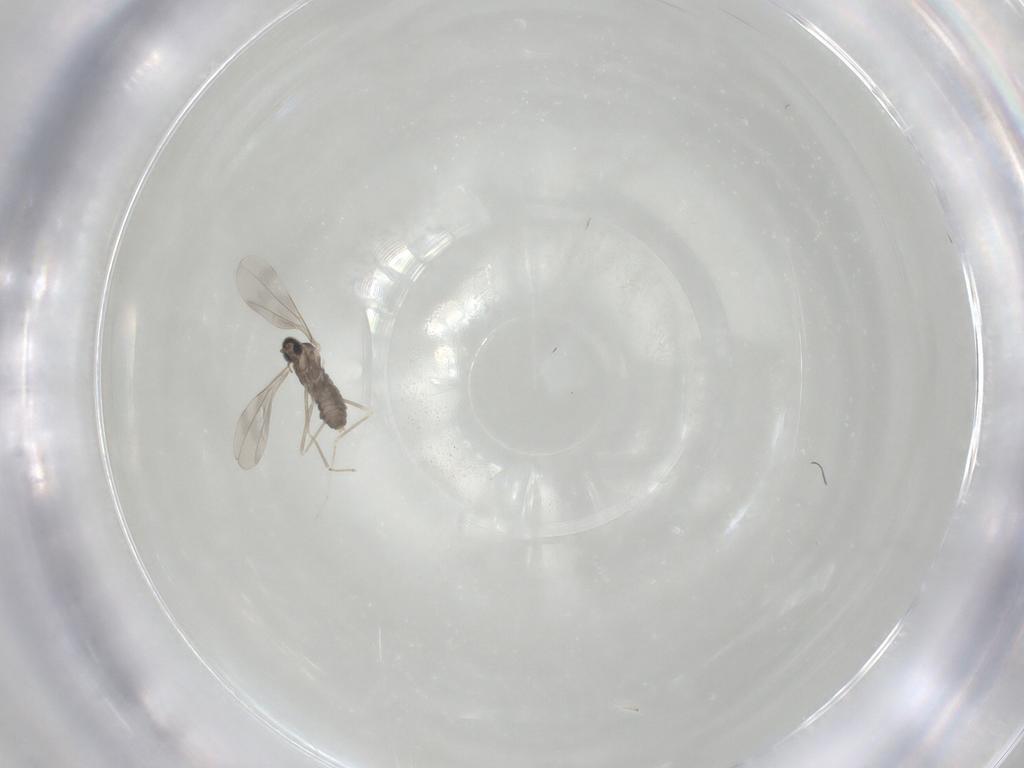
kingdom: Animalia
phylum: Arthropoda
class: Insecta
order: Diptera
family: Cecidomyiidae
